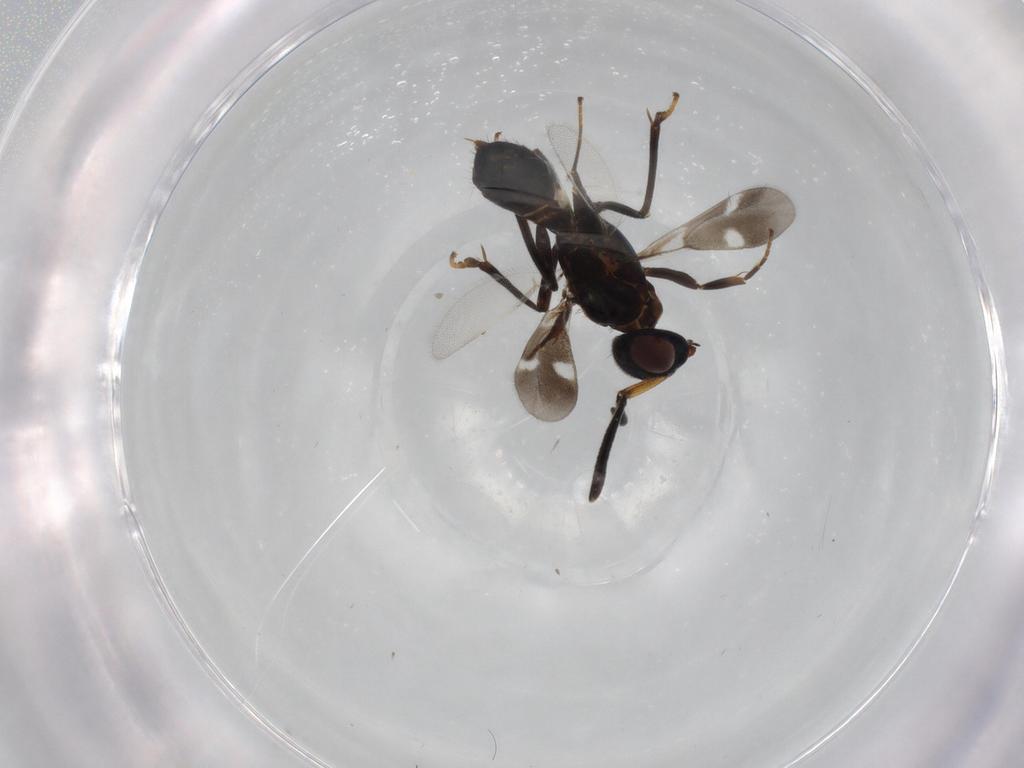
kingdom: Animalia
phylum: Arthropoda
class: Insecta
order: Hymenoptera
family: Eupelmidae
